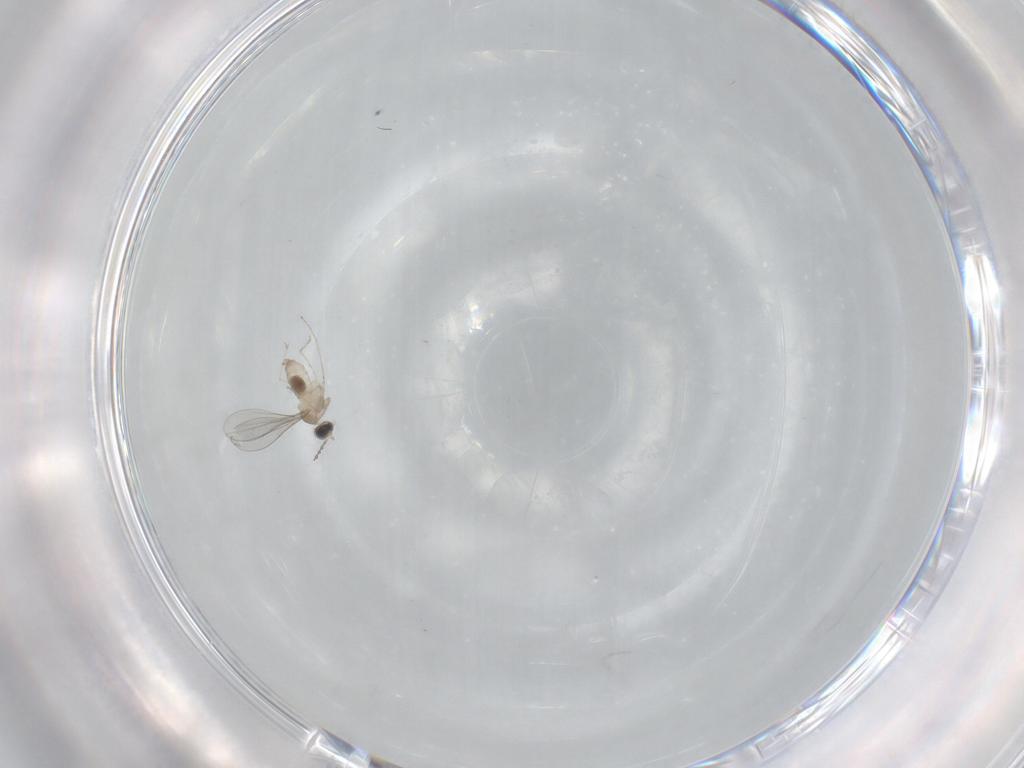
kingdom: Animalia
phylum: Arthropoda
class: Insecta
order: Diptera
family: Cecidomyiidae
